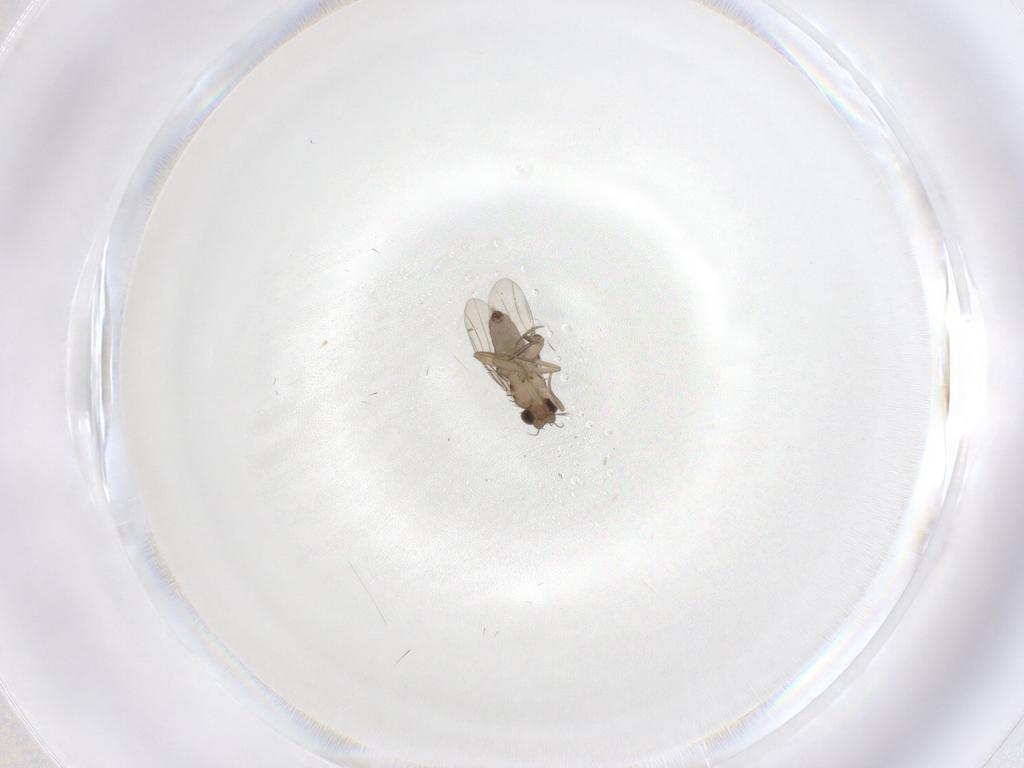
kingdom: Animalia
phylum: Arthropoda
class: Insecta
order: Diptera
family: Phoridae
